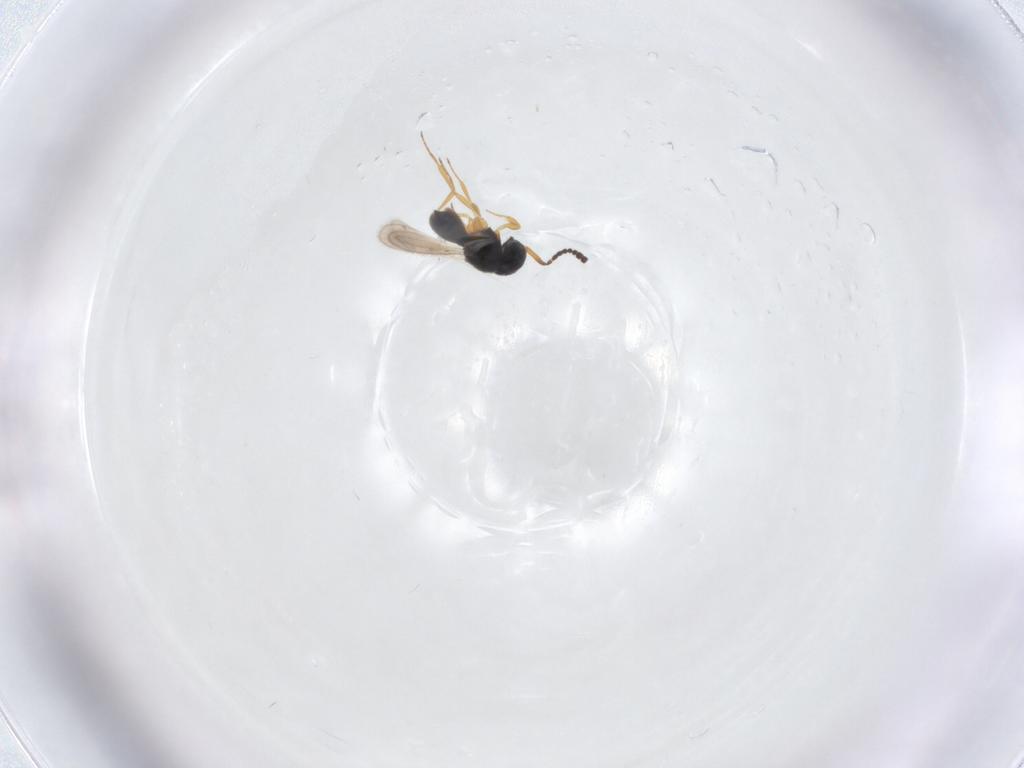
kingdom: Animalia
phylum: Arthropoda
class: Insecta
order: Hymenoptera
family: Scelionidae
